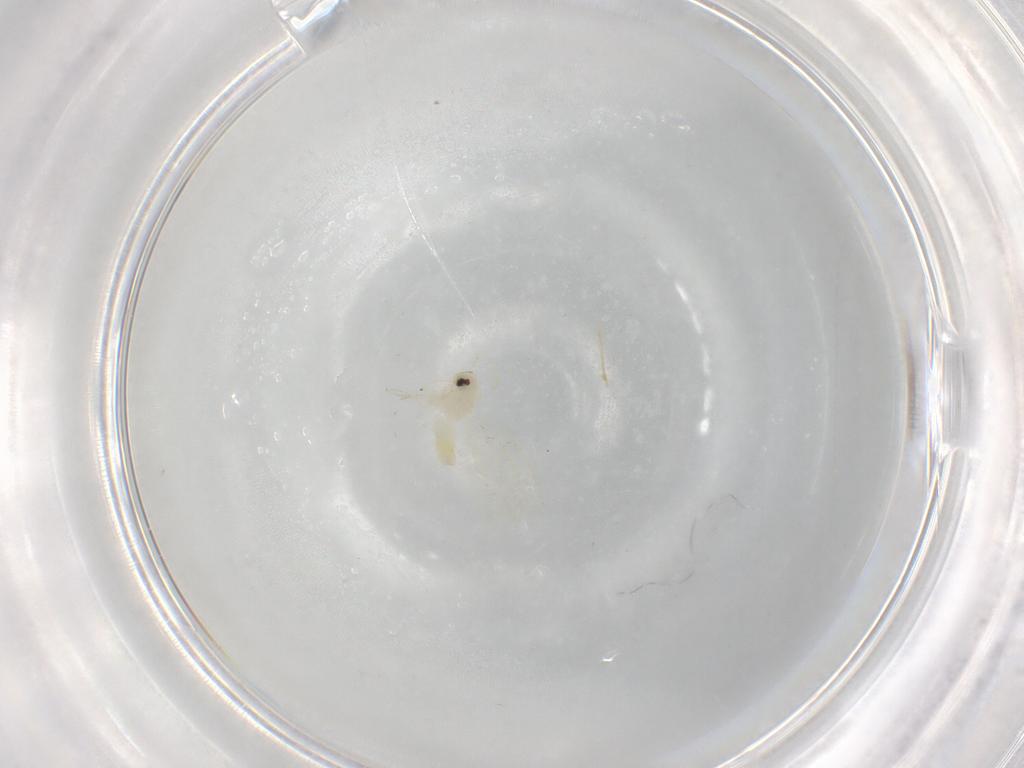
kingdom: Animalia
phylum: Arthropoda
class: Insecta
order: Hemiptera
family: Aleyrodidae
